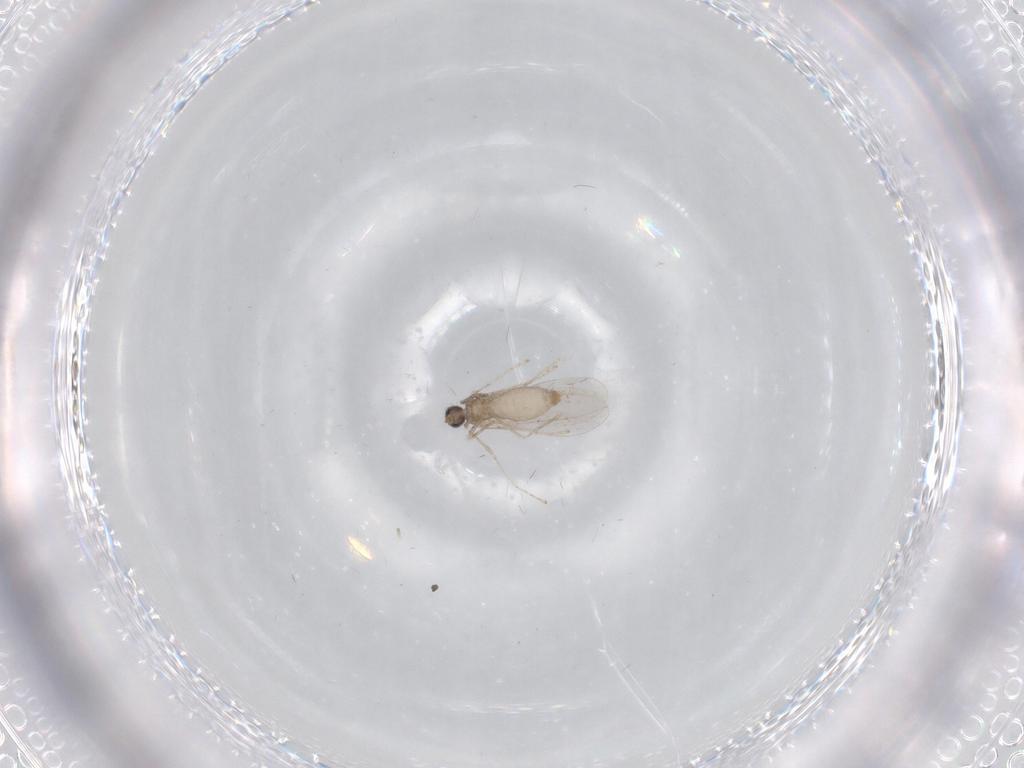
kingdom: Animalia
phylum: Arthropoda
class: Insecta
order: Diptera
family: Cecidomyiidae
